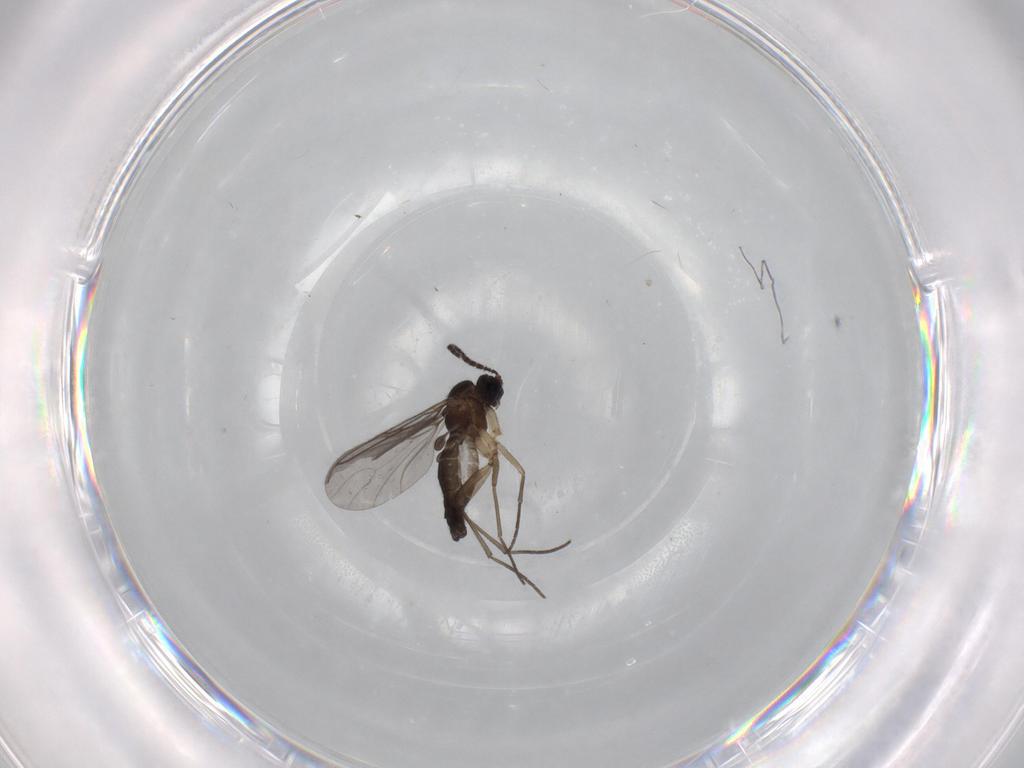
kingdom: Animalia
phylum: Arthropoda
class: Insecta
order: Diptera
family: Sciaridae
